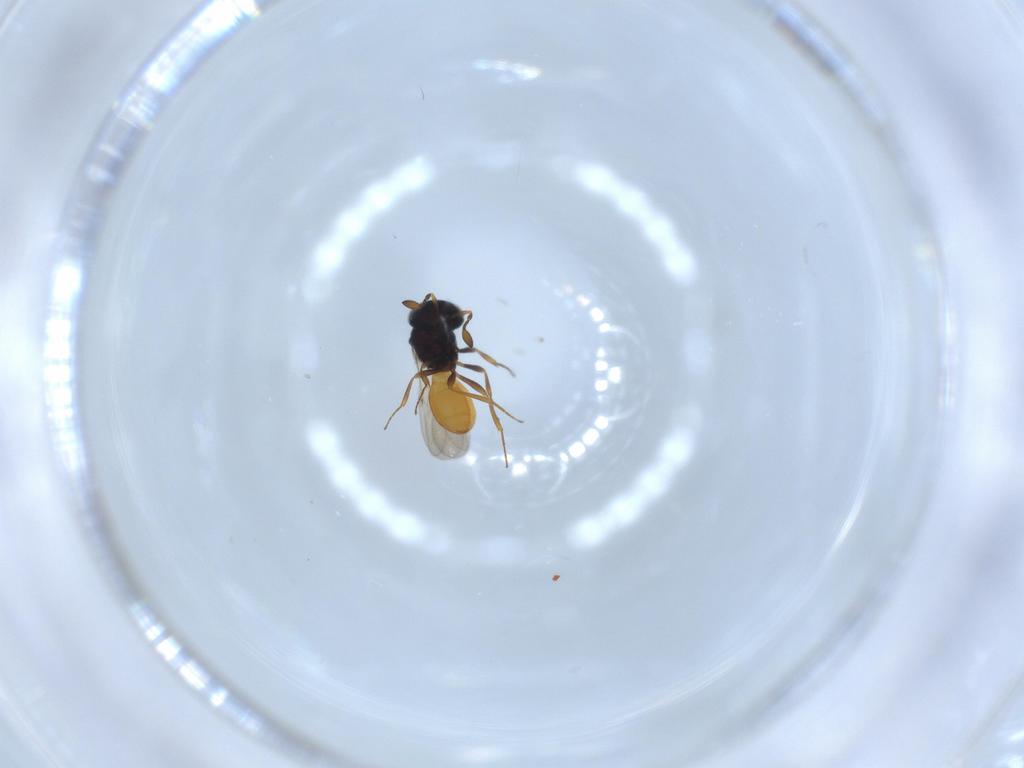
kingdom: Animalia
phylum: Arthropoda
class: Insecta
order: Hymenoptera
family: Scelionidae
